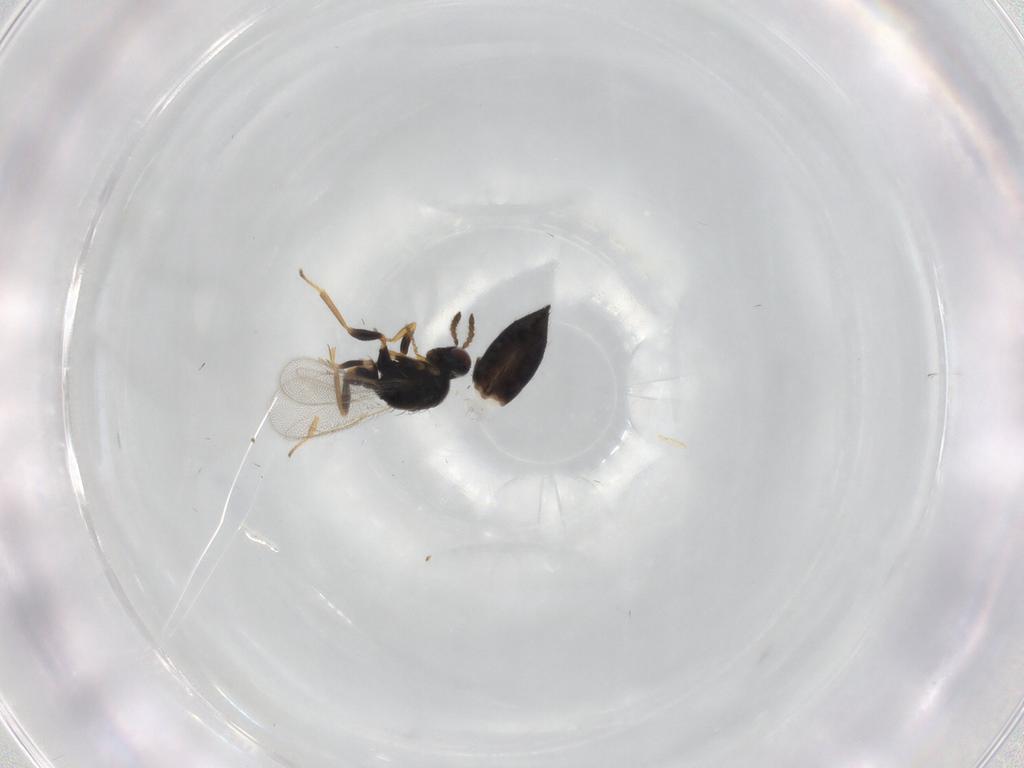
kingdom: Animalia
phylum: Arthropoda
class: Insecta
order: Hymenoptera
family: Eulophidae
